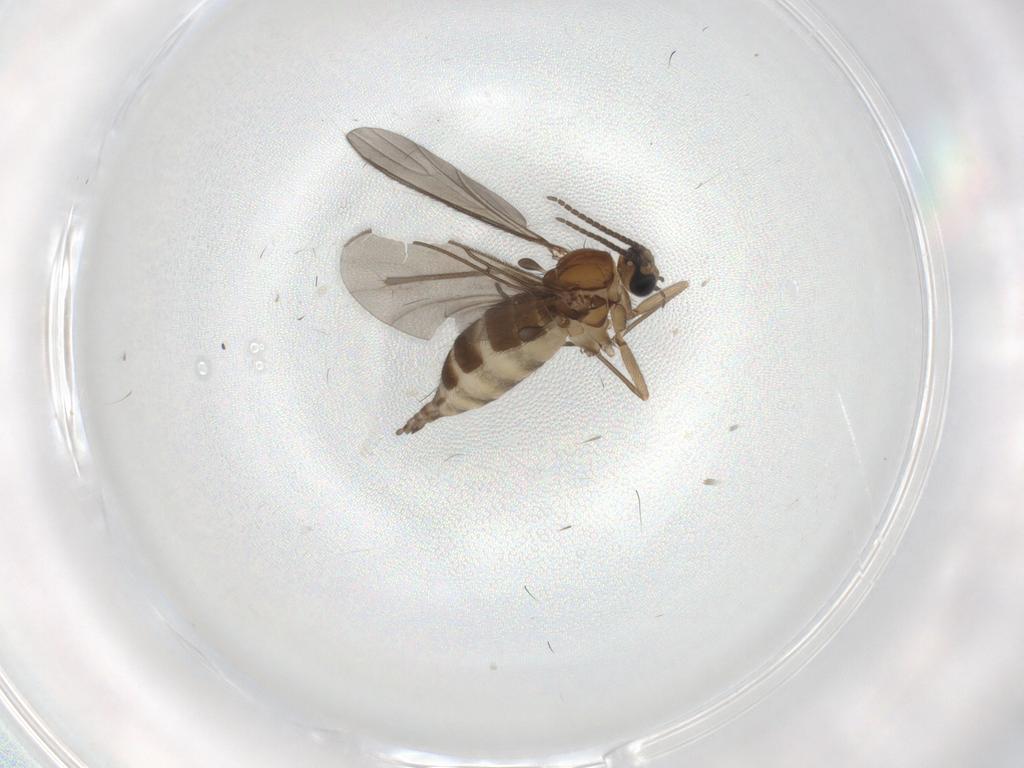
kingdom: Animalia
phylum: Arthropoda
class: Insecta
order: Diptera
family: Sciaridae
